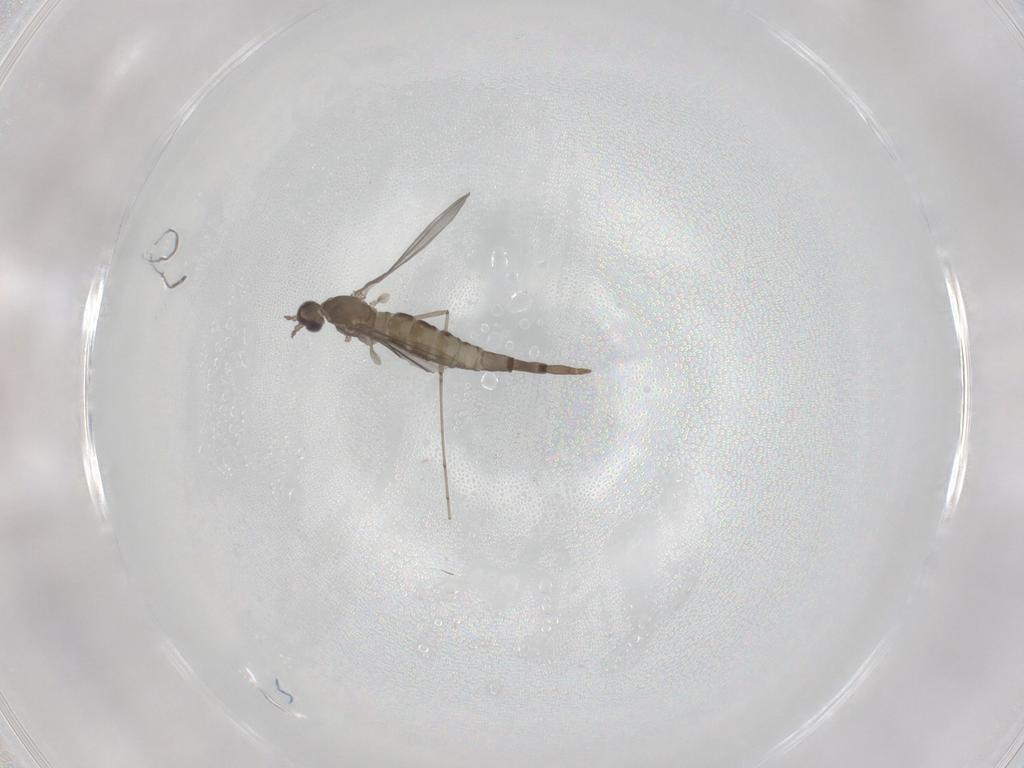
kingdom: Animalia
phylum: Arthropoda
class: Insecta
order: Diptera
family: Cecidomyiidae
